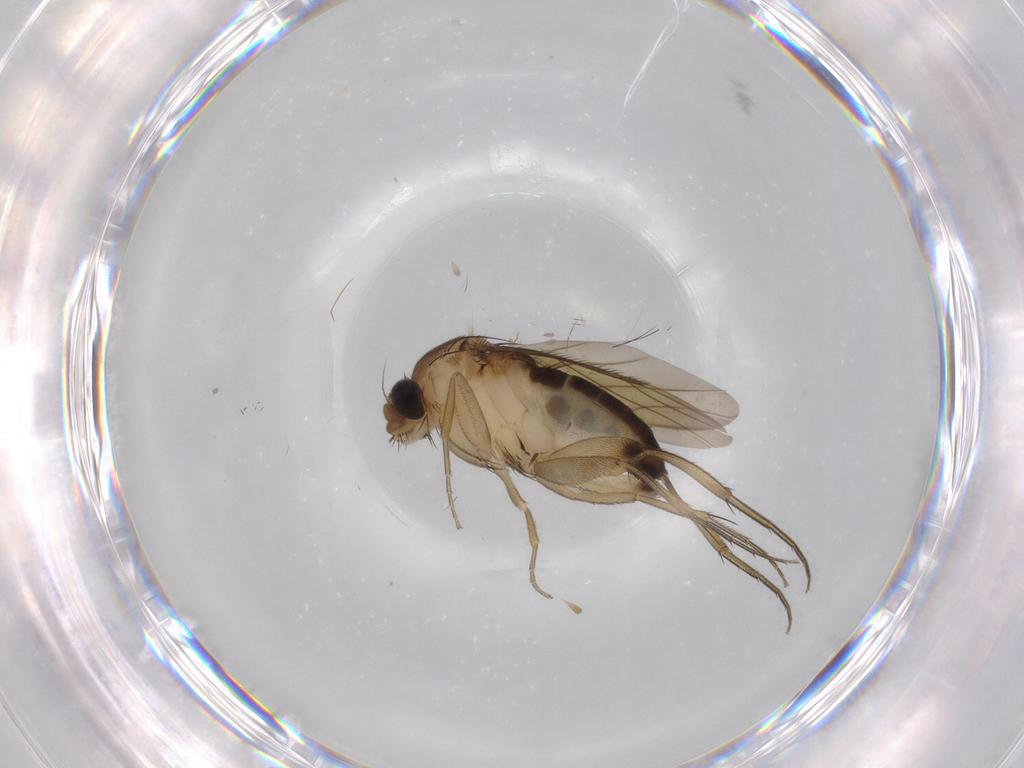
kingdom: Animalia
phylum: Arthropoda
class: Insecta
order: Diptera
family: Phoridae
